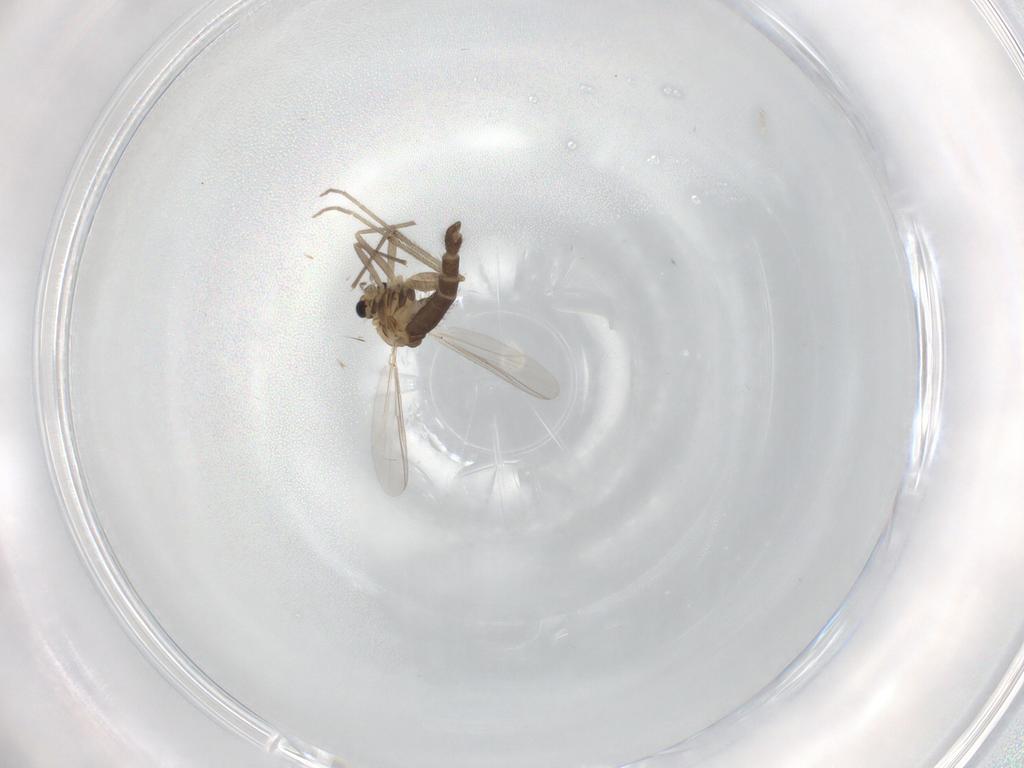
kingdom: Animalia
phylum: Arthropoda
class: Insecta
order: Diptera
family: Chironomidae
